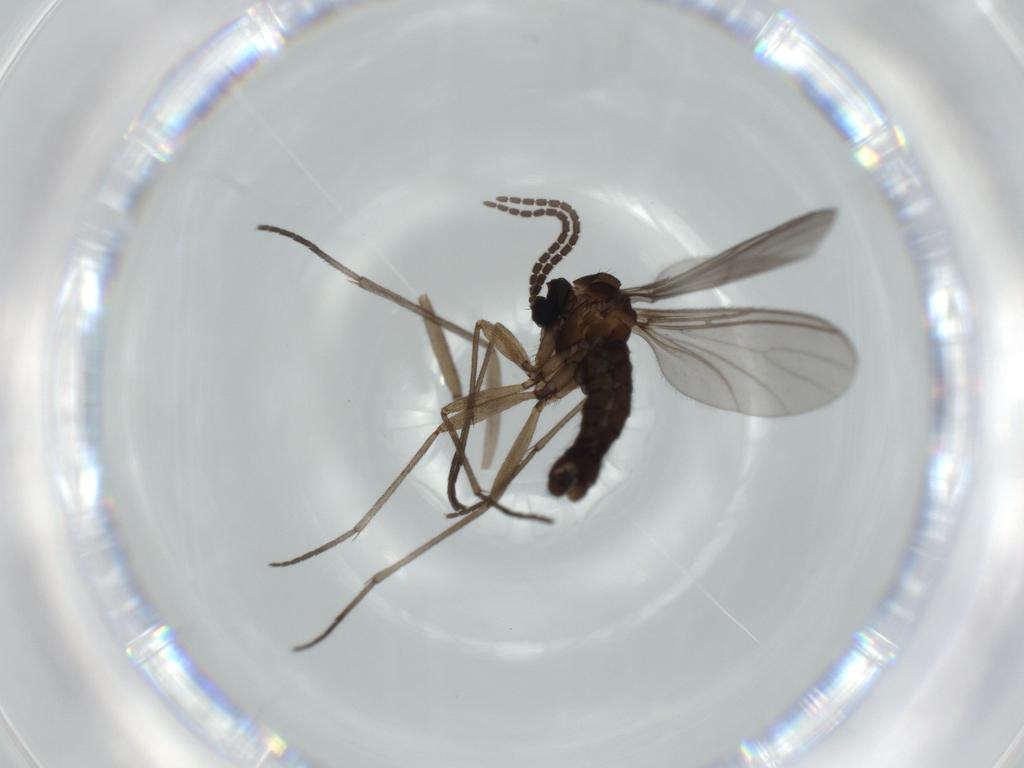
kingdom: Animalia
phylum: Arthropoda
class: Insecta
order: Diptera
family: Sciaridae
